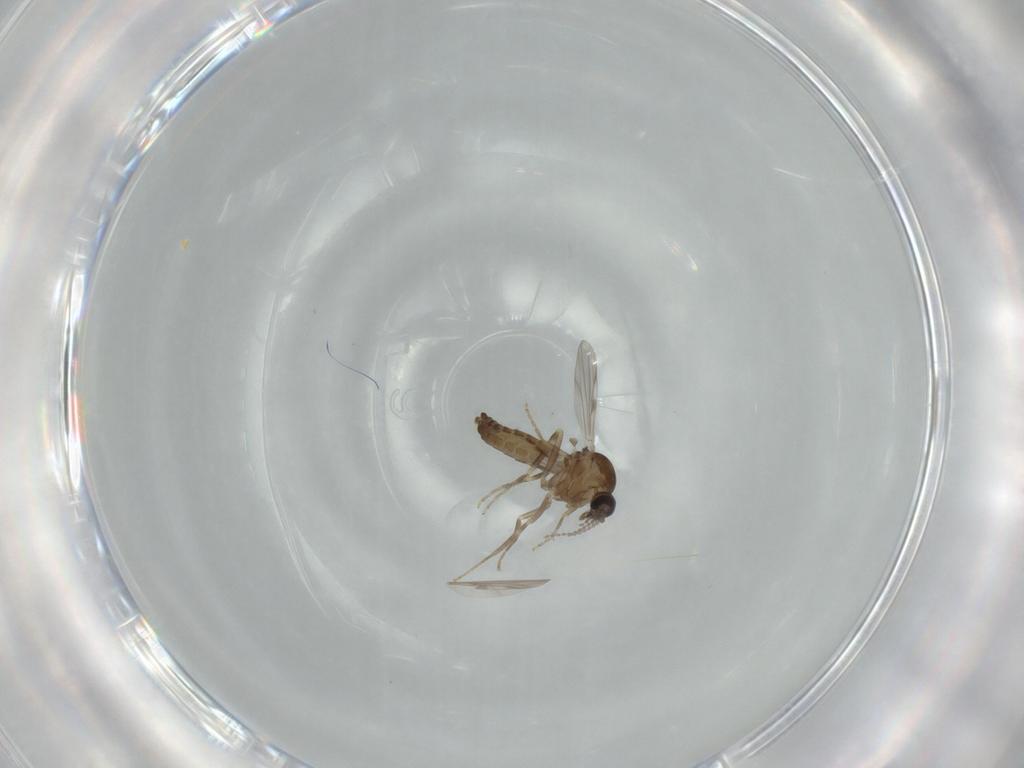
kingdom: Animalia
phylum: Arthropoda
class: Insecta
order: Diptera
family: Ceratopogonidae
